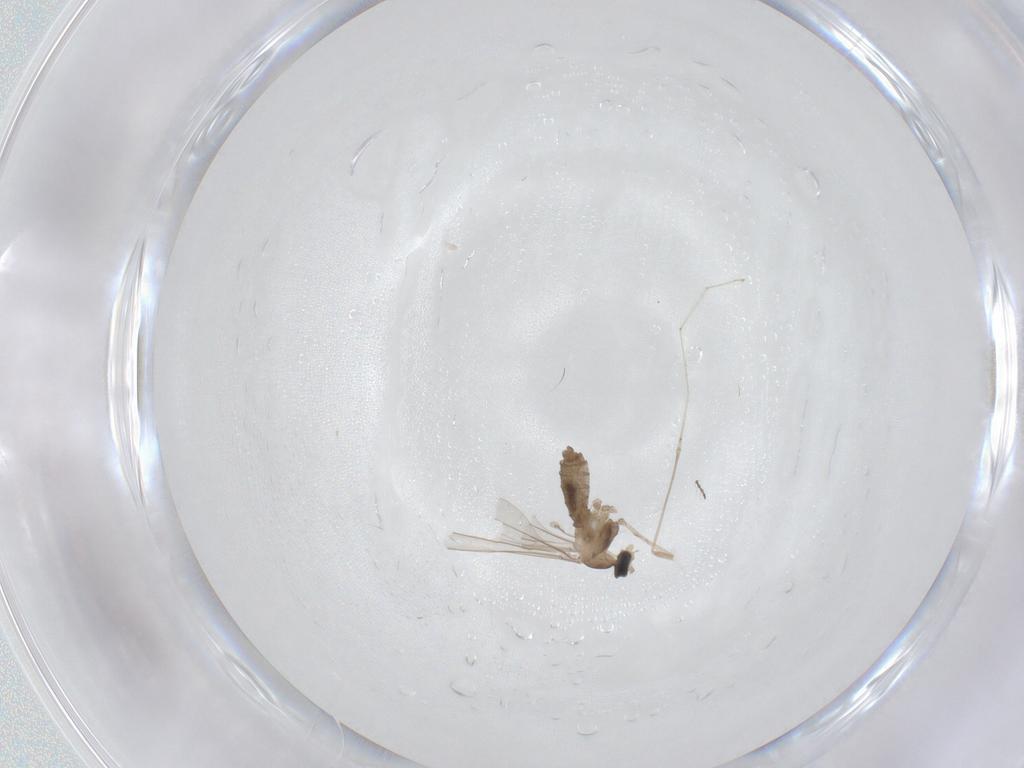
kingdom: Animalia
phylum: Arthropoda
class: Insecta
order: Diptera
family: Cecidomyiidae
